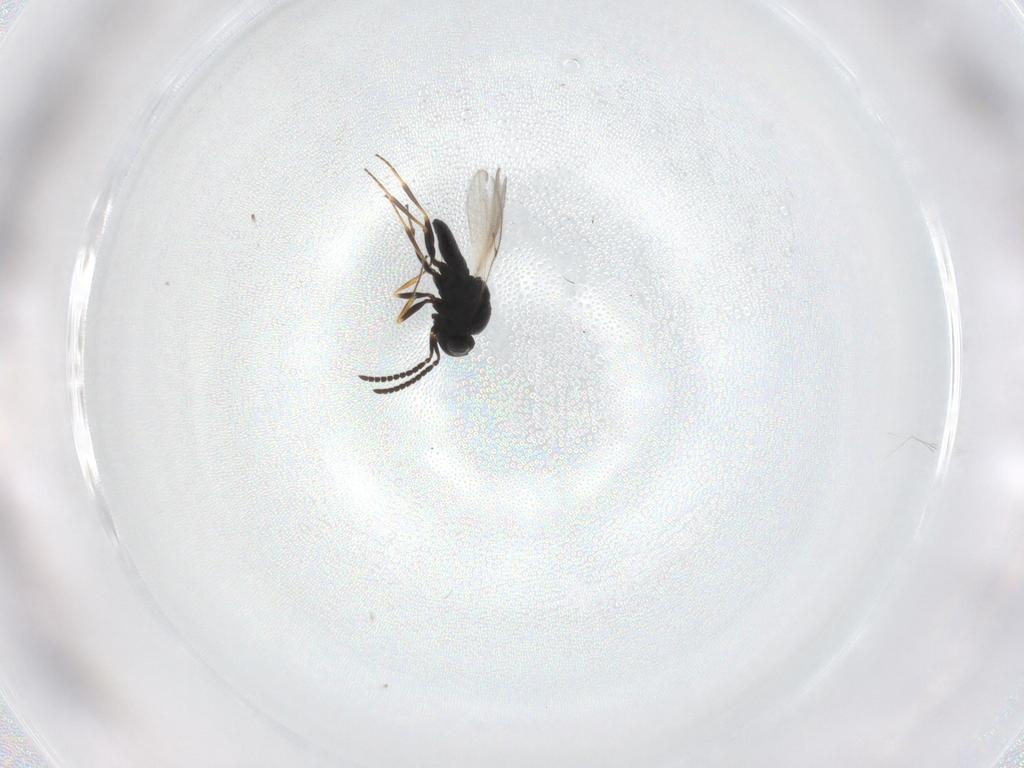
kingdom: Animalia
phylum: Arthropoda
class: Insecta
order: Hymenoptera
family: Scelionidae
